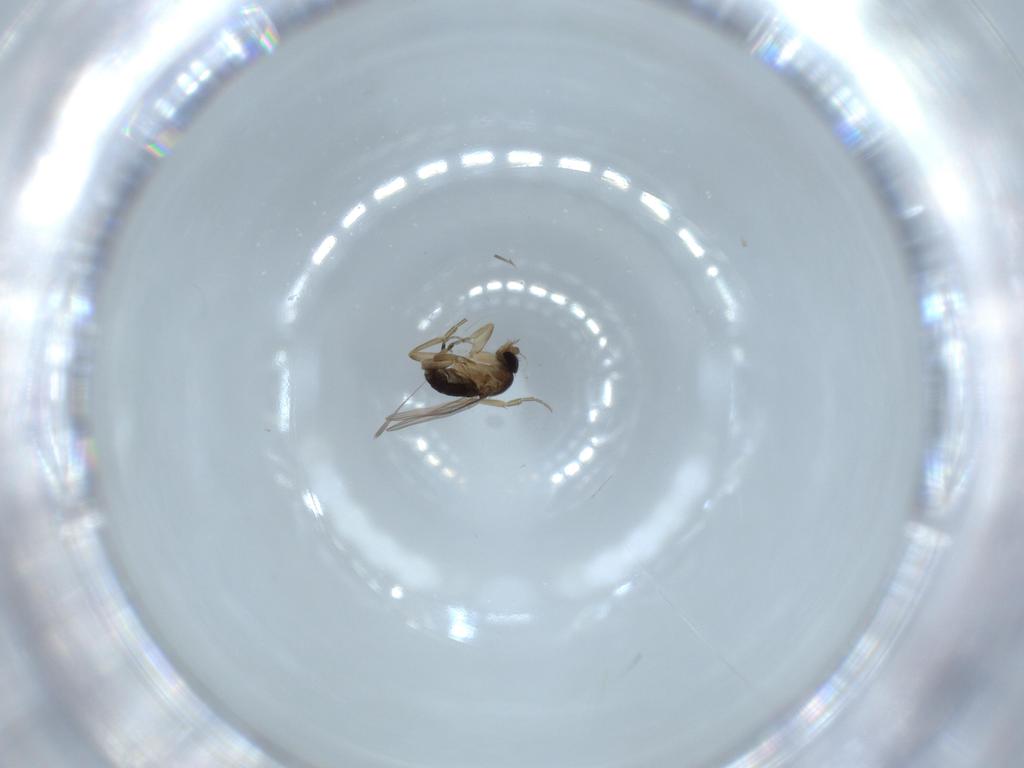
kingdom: Animalia
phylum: Arthropoda
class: Insecta
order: Diptera
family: Phoridae
